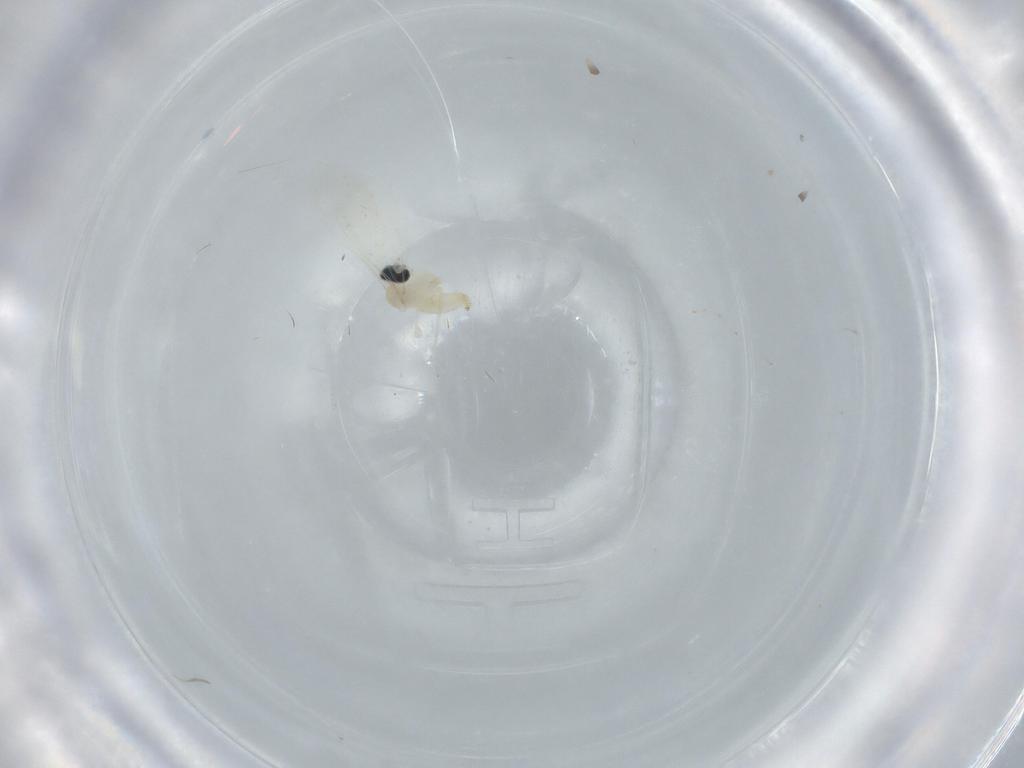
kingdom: Animalia
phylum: Arthropoda
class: Insecta
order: Diptera
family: Cecidomyiidae
